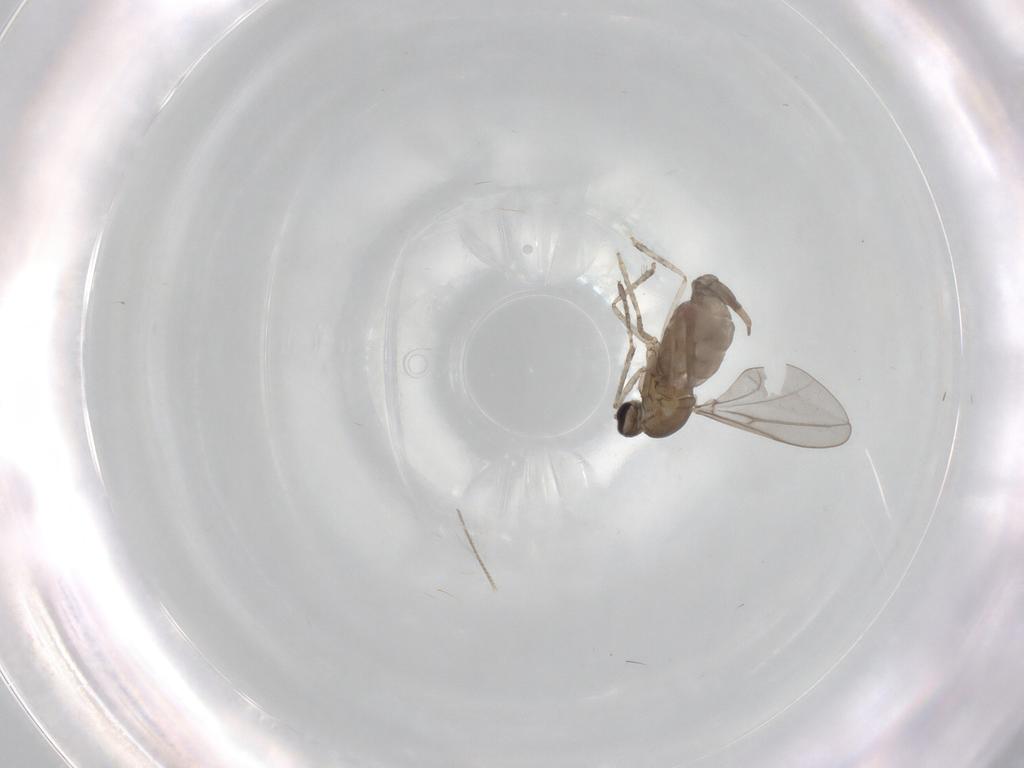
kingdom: Animalia
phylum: Arthropoda
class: Insecta
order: Diptera
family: Cecidomyiidae
